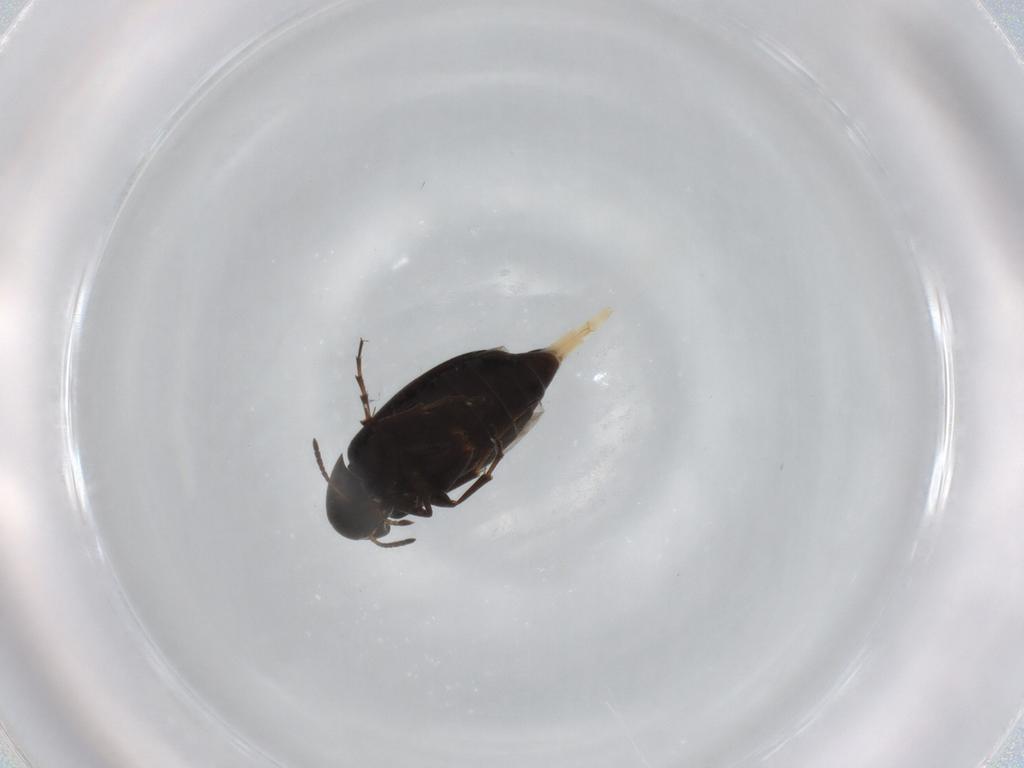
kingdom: Animalia
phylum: Arthropoda
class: Insecta
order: Coleoptera
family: Scraptiidae
